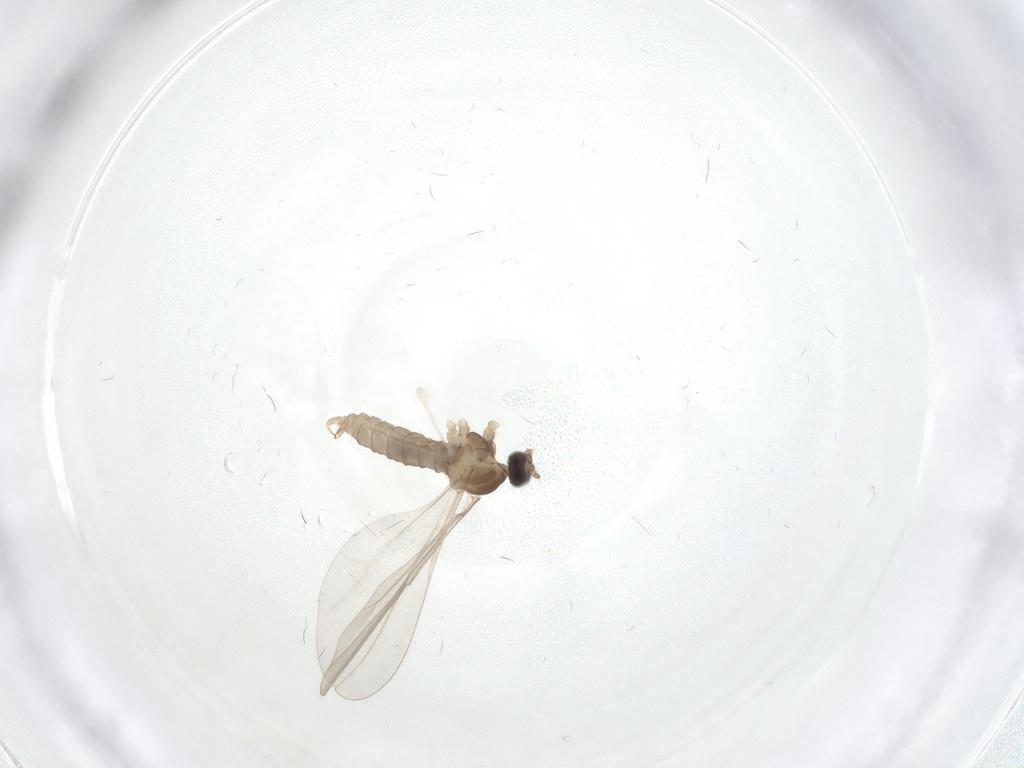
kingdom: Animalia
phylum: Arthropoda
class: Insecta
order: Diptera
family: Cecidomyiidae
